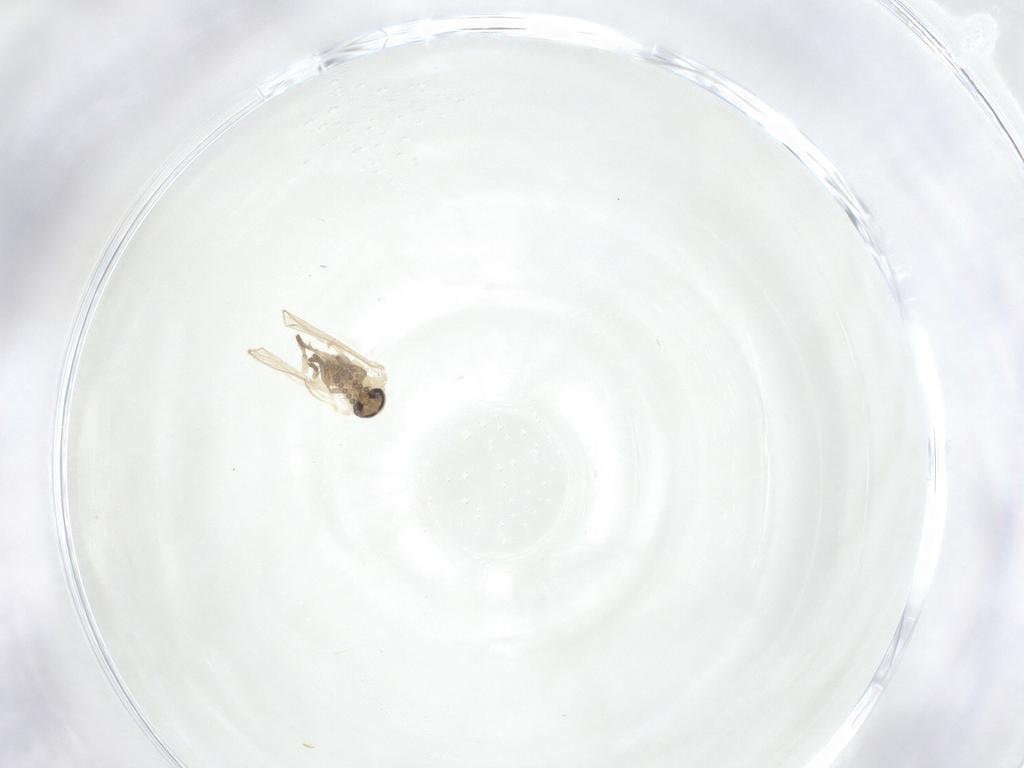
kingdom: Animalia
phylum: Arthropoda
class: Insecta
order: Diptera
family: Psychodidae
